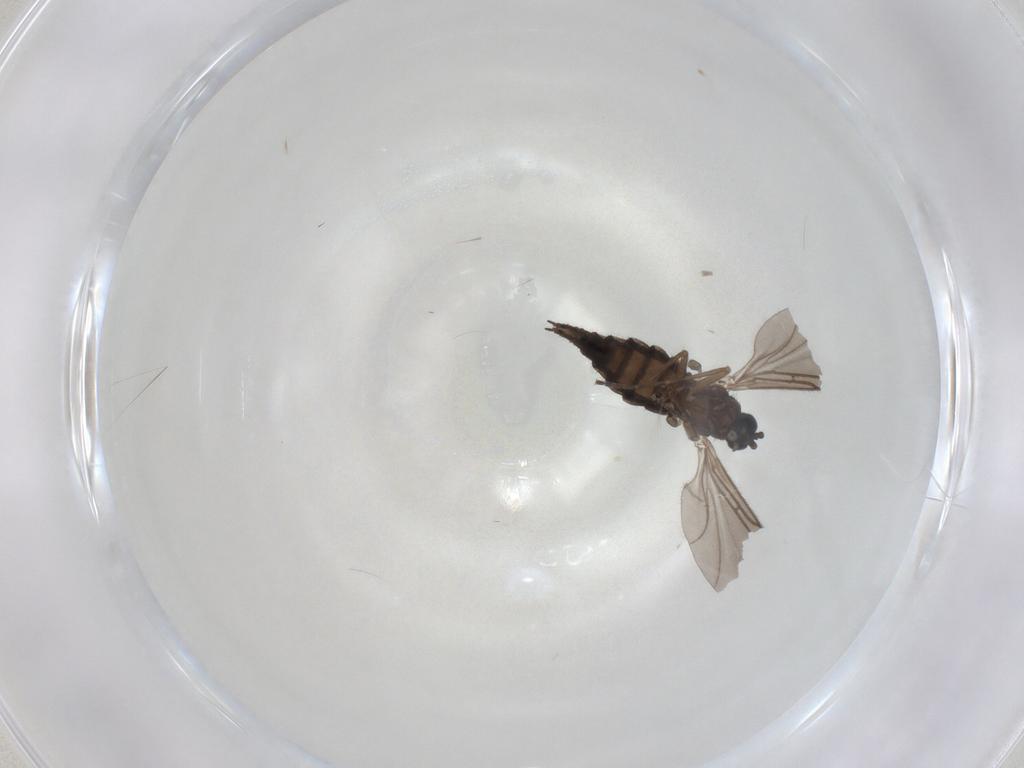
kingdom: Animalia
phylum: Arthropoda
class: Insecta
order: Diptera
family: Sciaridae
